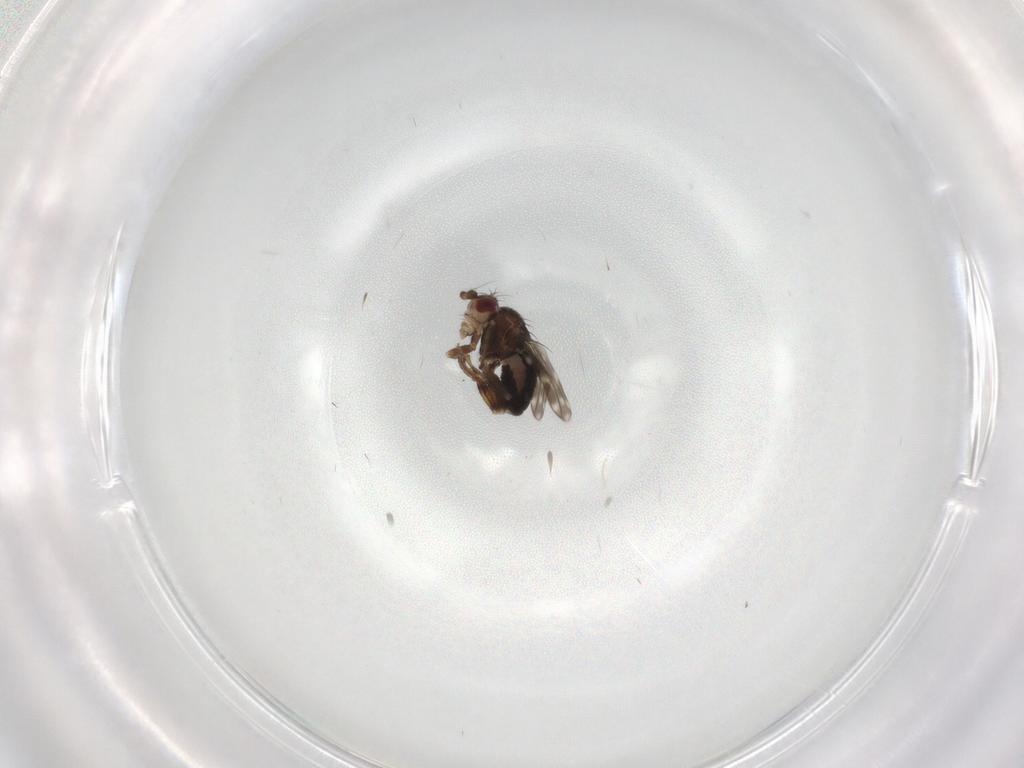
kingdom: Animalia
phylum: Arthropoda
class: Insecta
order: Diptera
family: Sphaeroceridae
